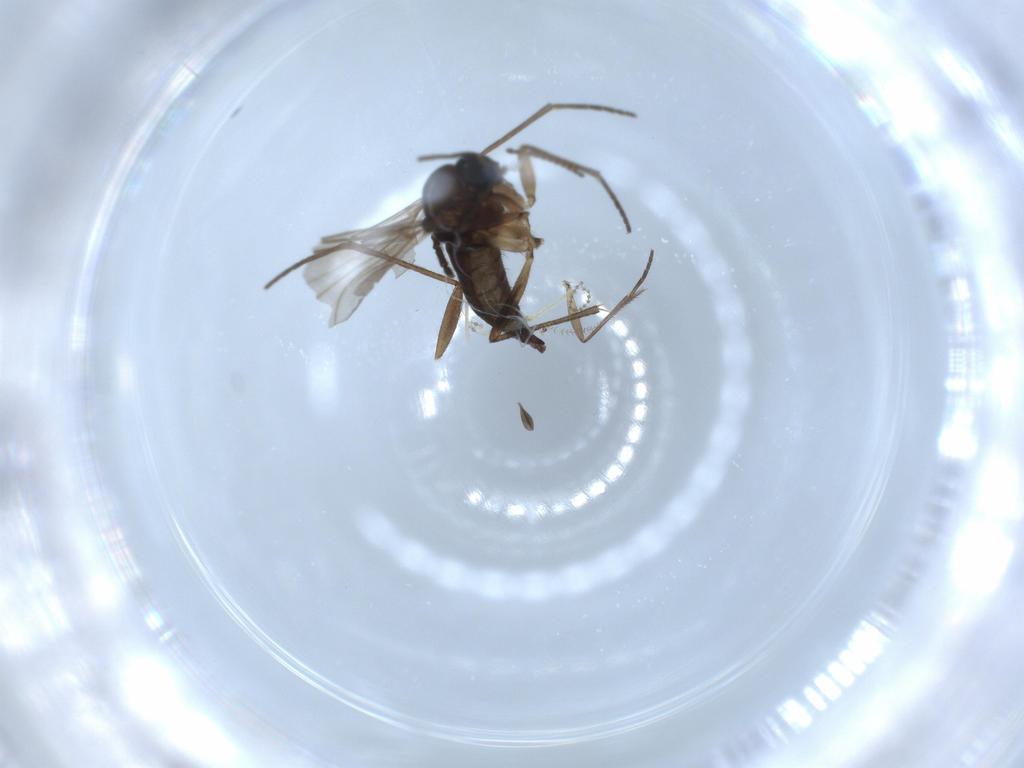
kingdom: Animalia
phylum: Arthropoda
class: Insecta
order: Diptera
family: Sciaridae
